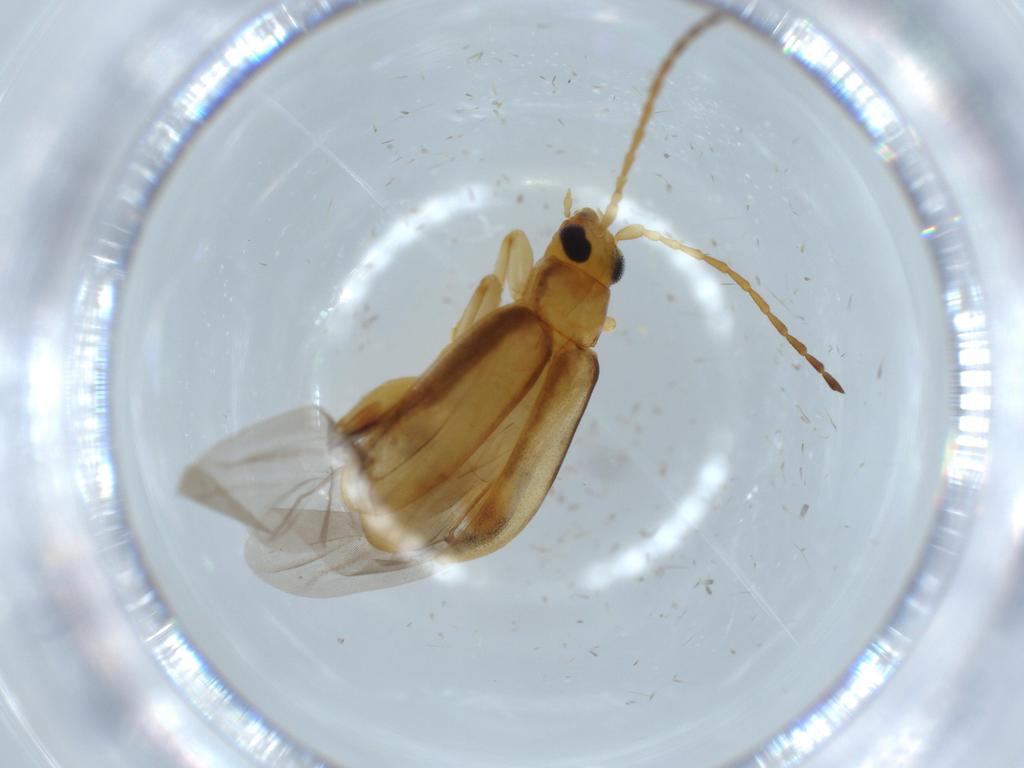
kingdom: Animalia
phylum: Arthropoda
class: Insecta
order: Coleoptera
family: Chrysomelidae
